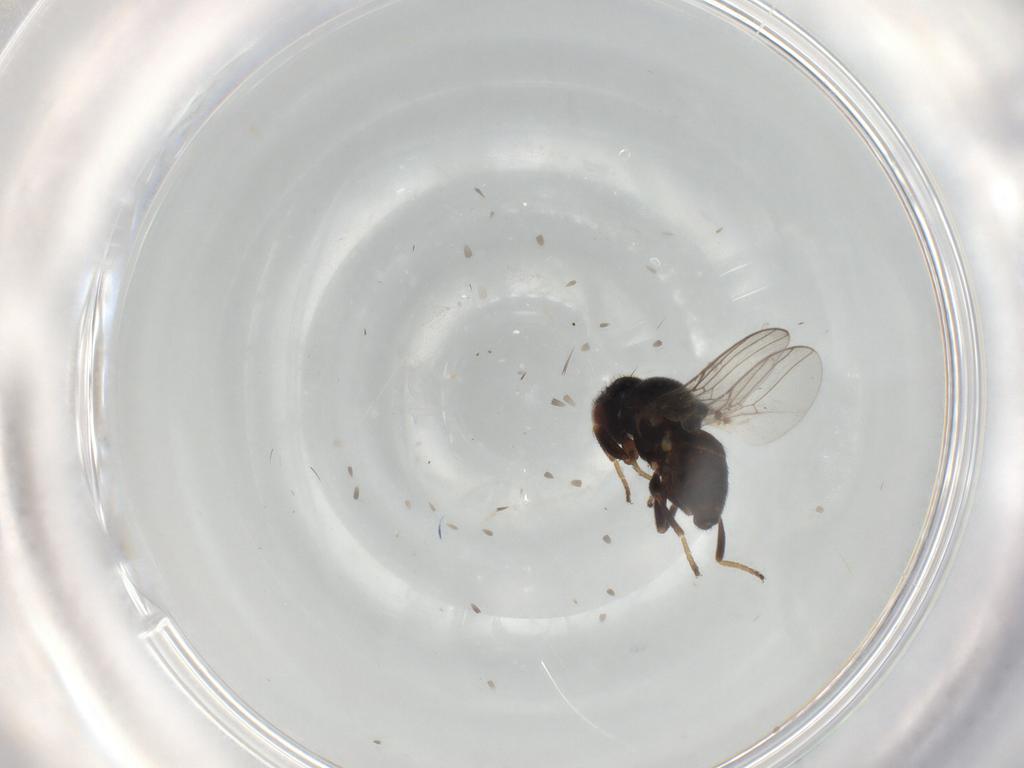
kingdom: Animalia
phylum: Arthropoda
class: Insecta
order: Diptera
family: Chloropidae
